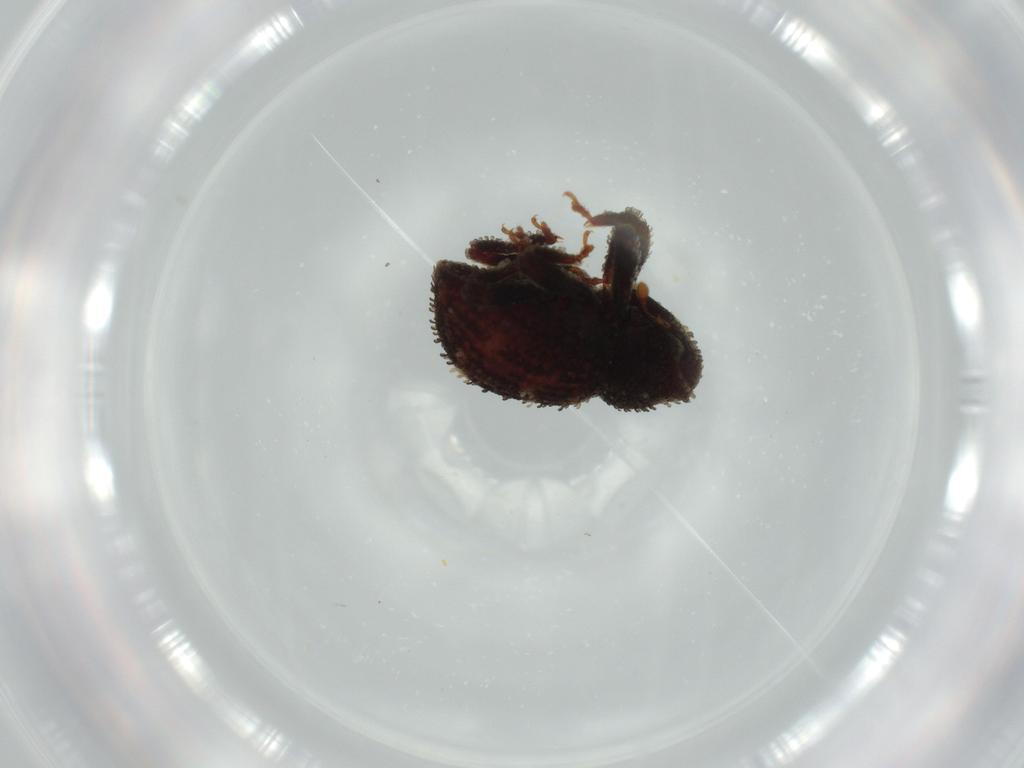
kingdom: Animalia
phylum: Arthropoda
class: Insecta
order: Coleoptera
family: Curculionidae
